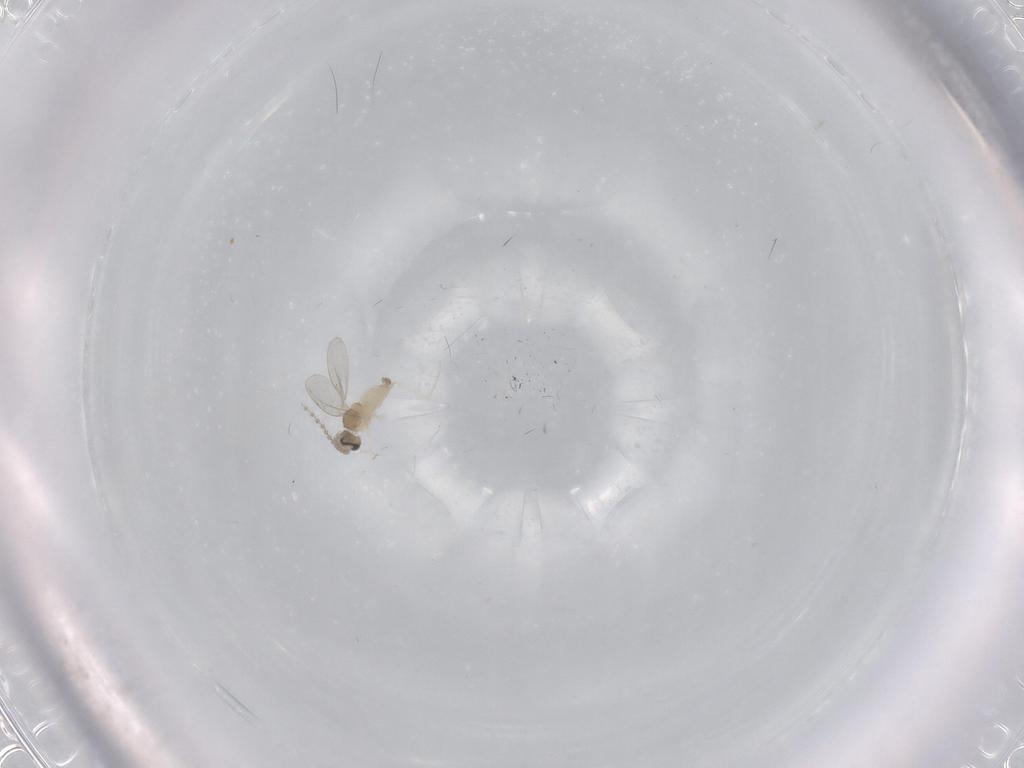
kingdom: Animalia
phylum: Arthropoda
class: Insecta
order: Diptera
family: Cecidomyiidae
